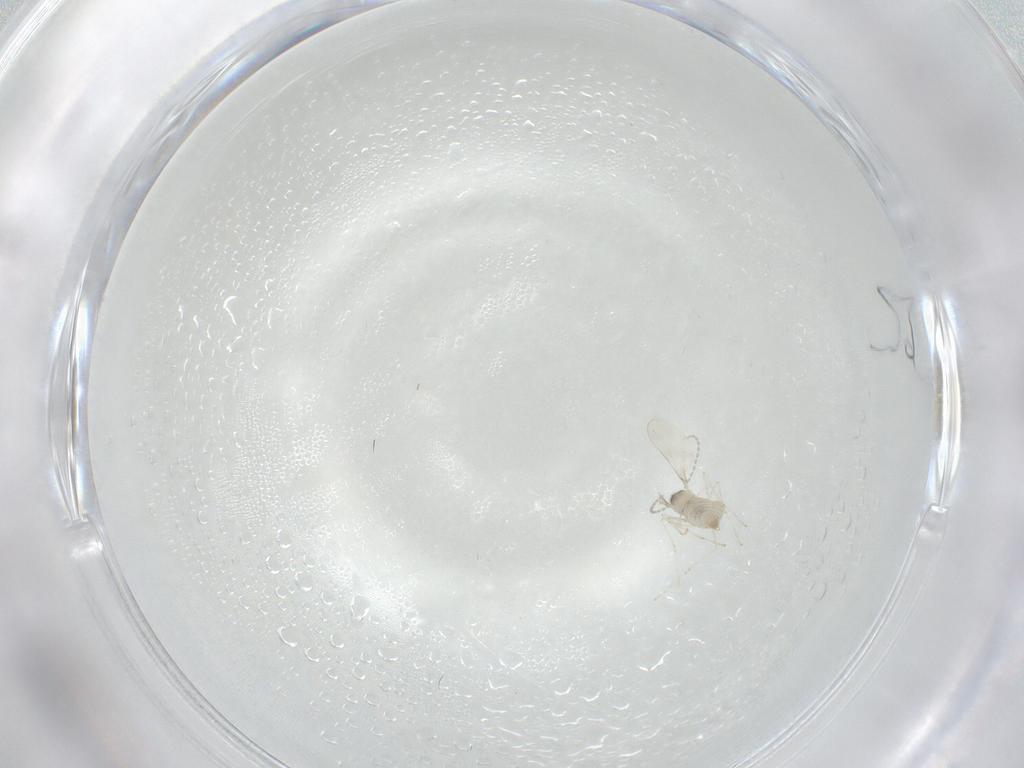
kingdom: Animalia
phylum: Arthropoda
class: Insecta
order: Diptera
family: Cecidomyiidae
